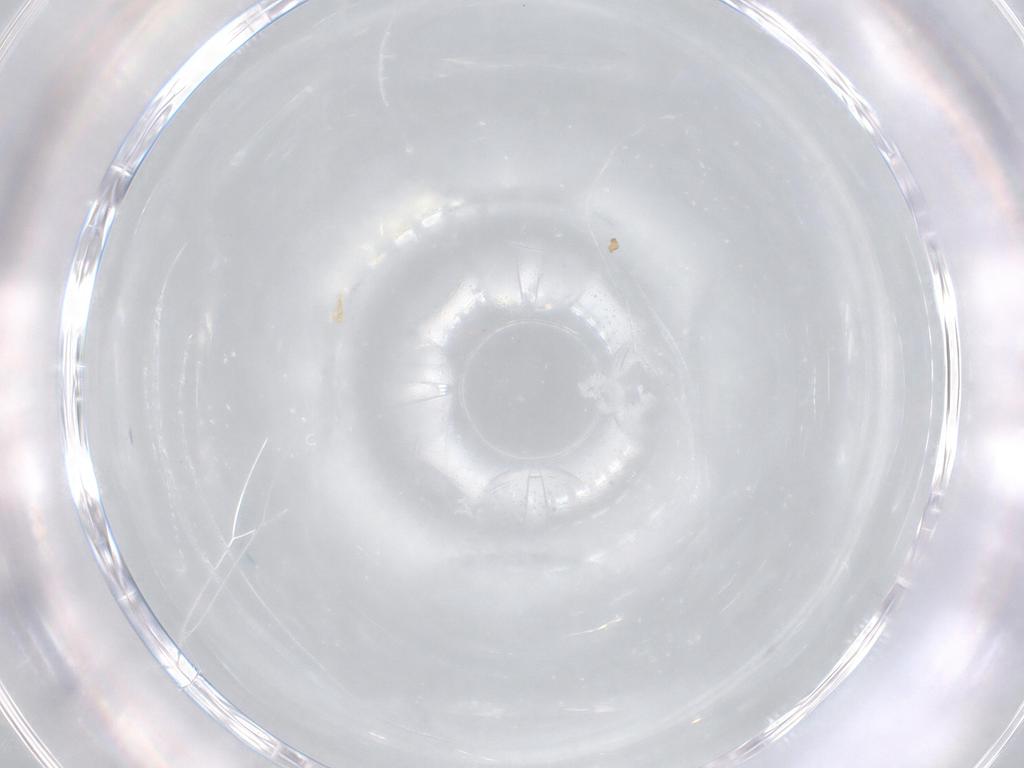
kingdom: Animalia
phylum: Arthropoda
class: Insecta
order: Orthoptera
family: Trigonidiidae
